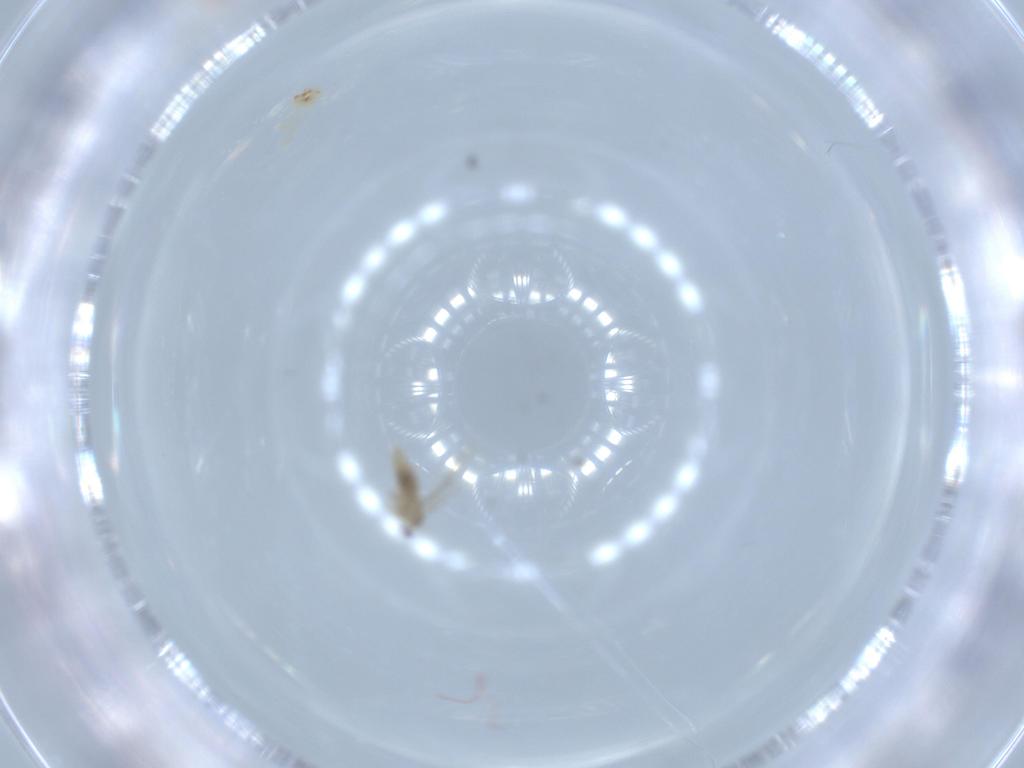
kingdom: Animalia
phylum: Arthropoda
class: Insecta
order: Diptera
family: Cecidomyiidae
